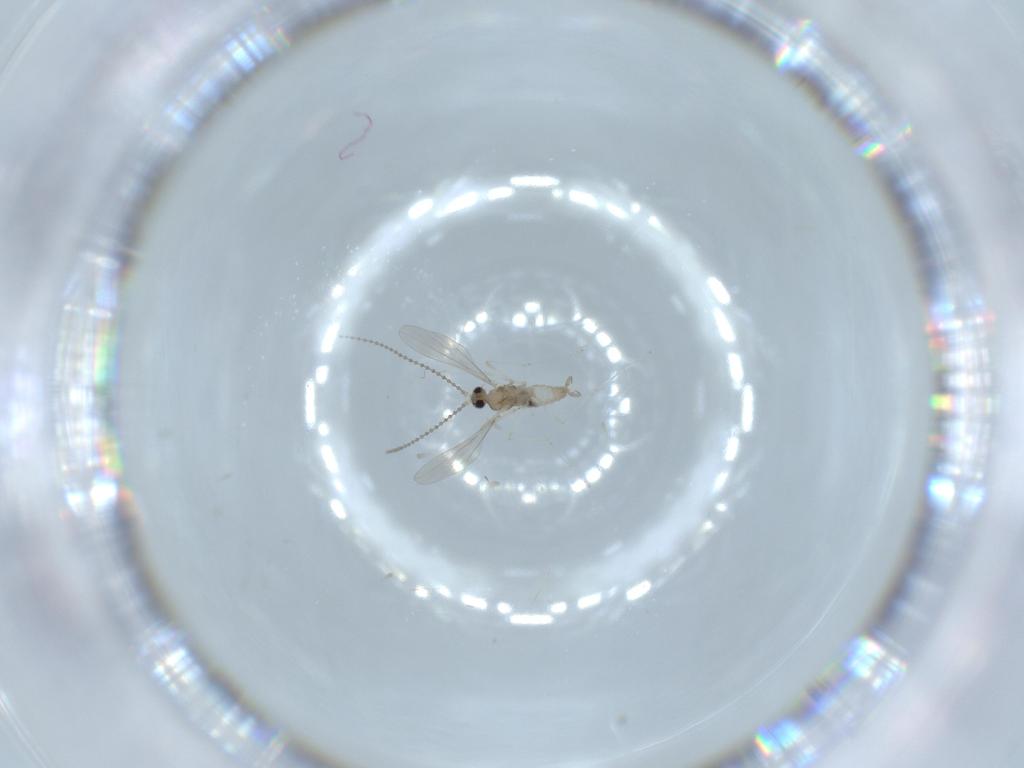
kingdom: Animalia
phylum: Arthropoda
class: Insecta
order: Diptera
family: Cecidomyiidae
